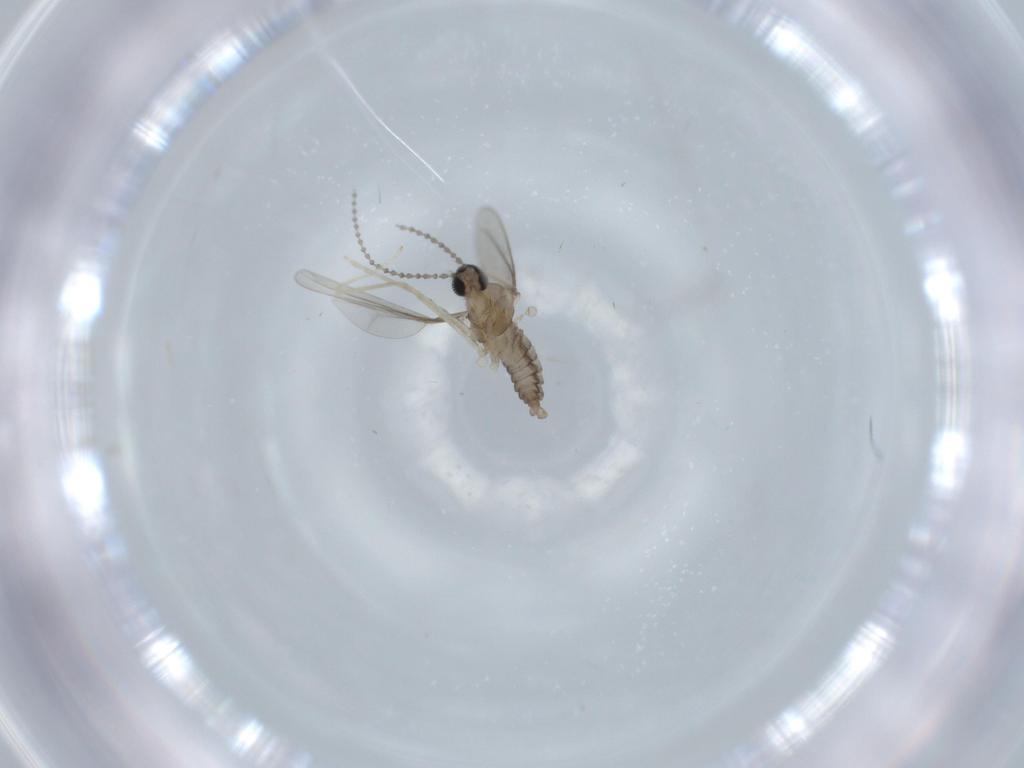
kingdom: Animalia
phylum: Arthropoda
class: Insecta
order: Diptera
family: Cecidomyiidae
